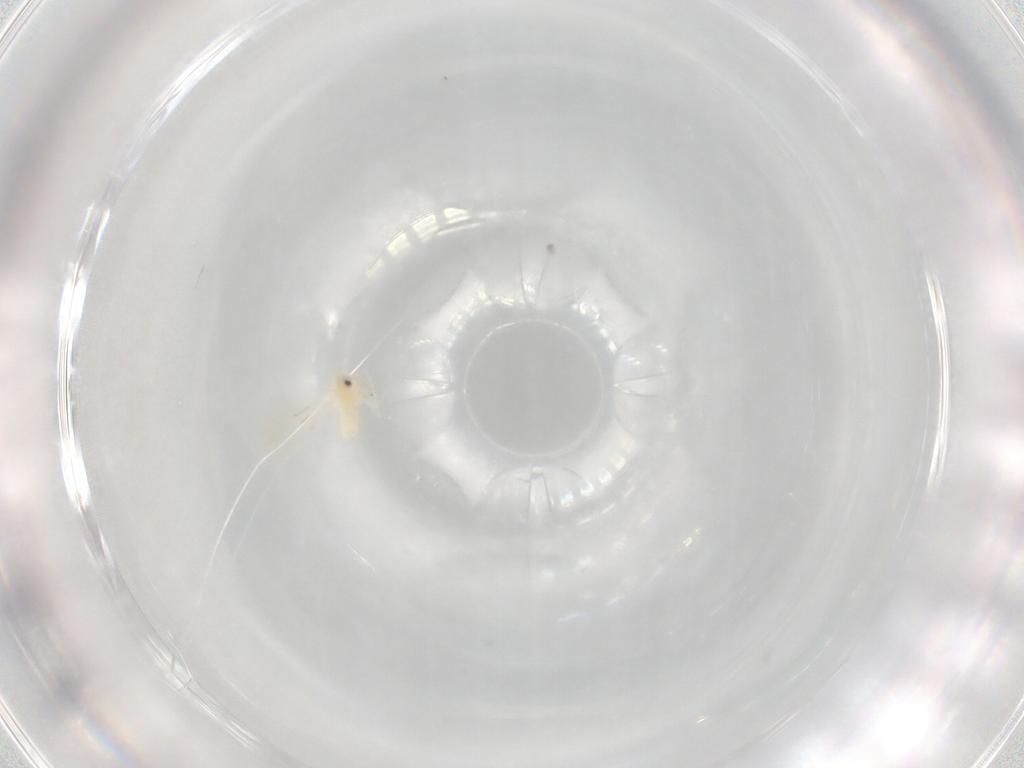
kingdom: Animalia
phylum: Arthropoda
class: Insecta
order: Hemiptera
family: Aleyrodidae
